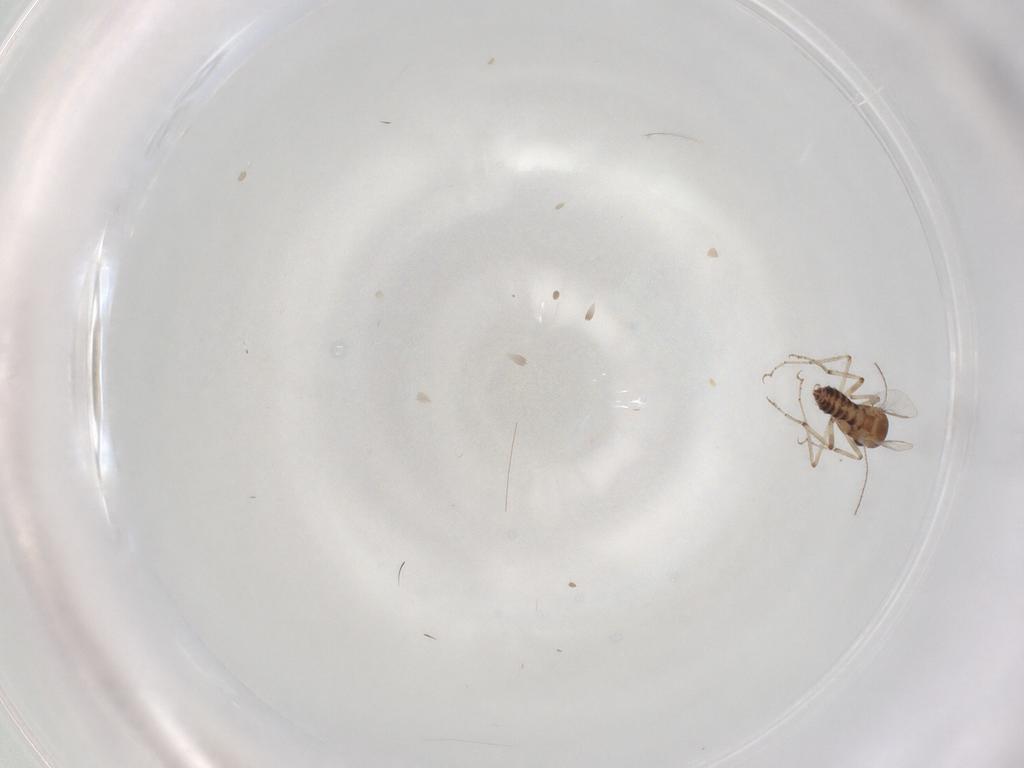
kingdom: Animalia
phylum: Arthropoda
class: Insecta
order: Diptera
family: Ceratopogonidae
